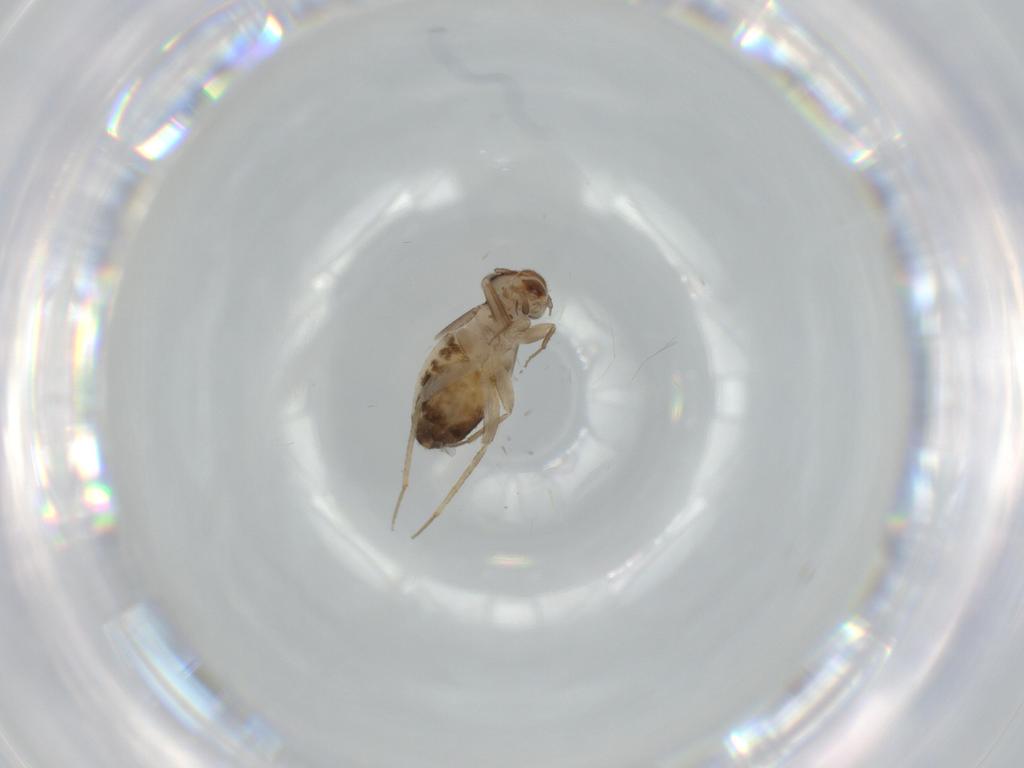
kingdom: Animalia
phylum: Arthropoda
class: Insecta
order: Psocodea
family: Lepidopsocidae
